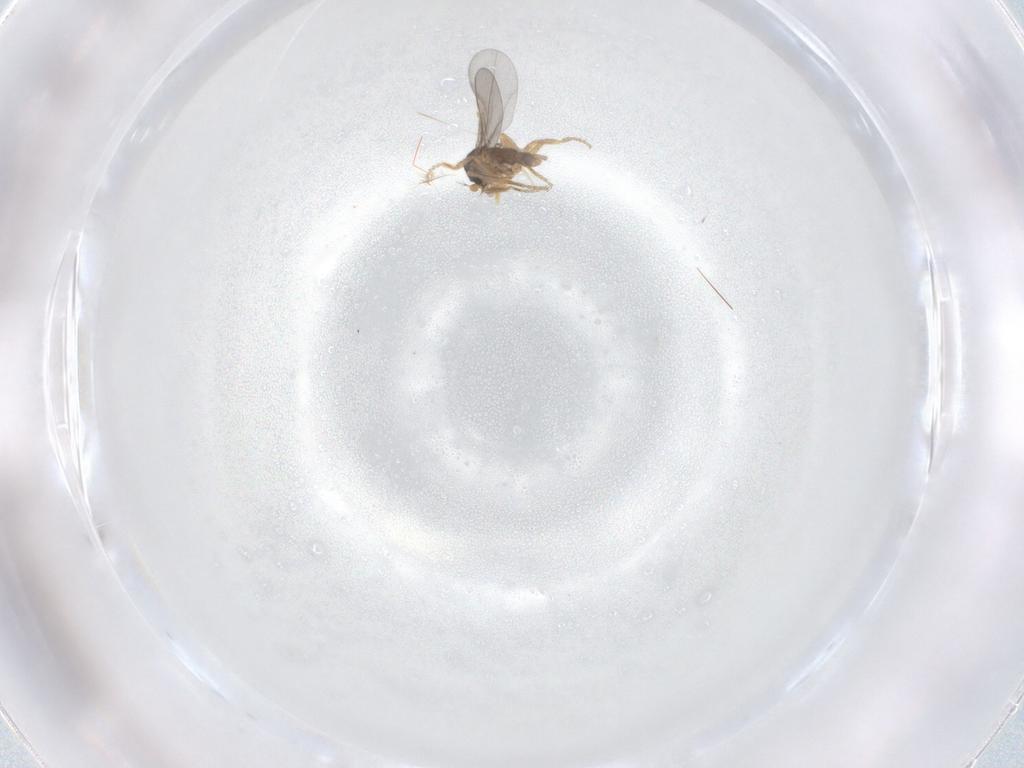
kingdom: Animalia
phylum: Arthropoda
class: Insecta
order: Diptera
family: Phoridae
